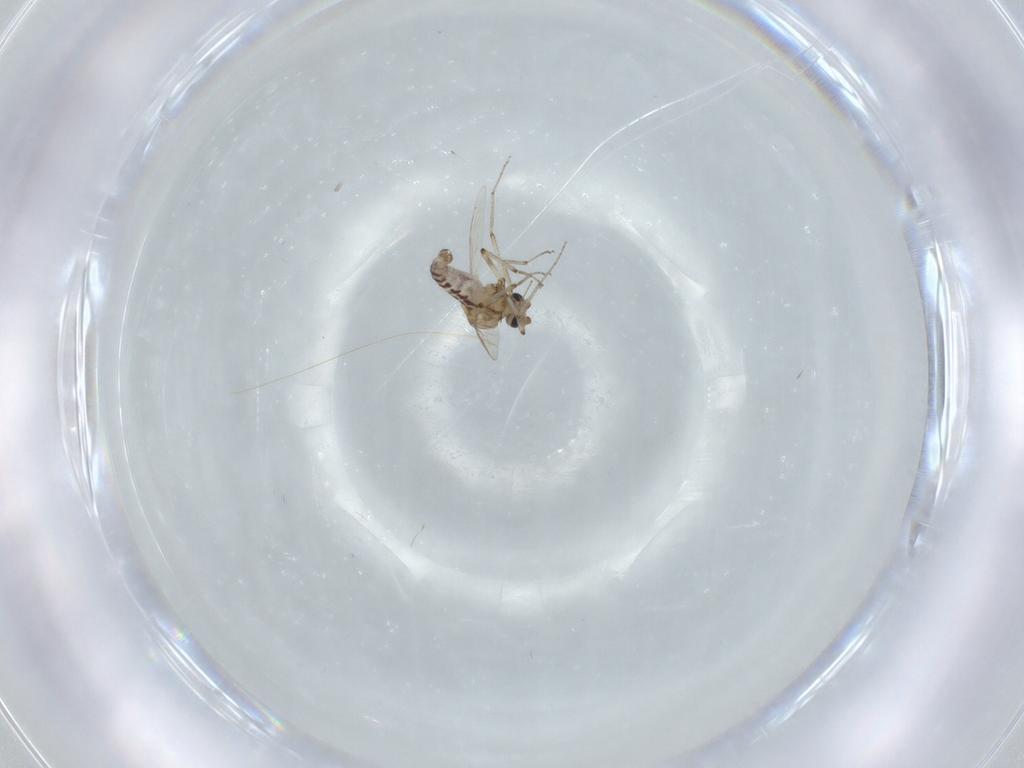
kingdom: Animalia
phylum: Arthropoda
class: Insecta
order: Diptera
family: Ceratopogonidae
